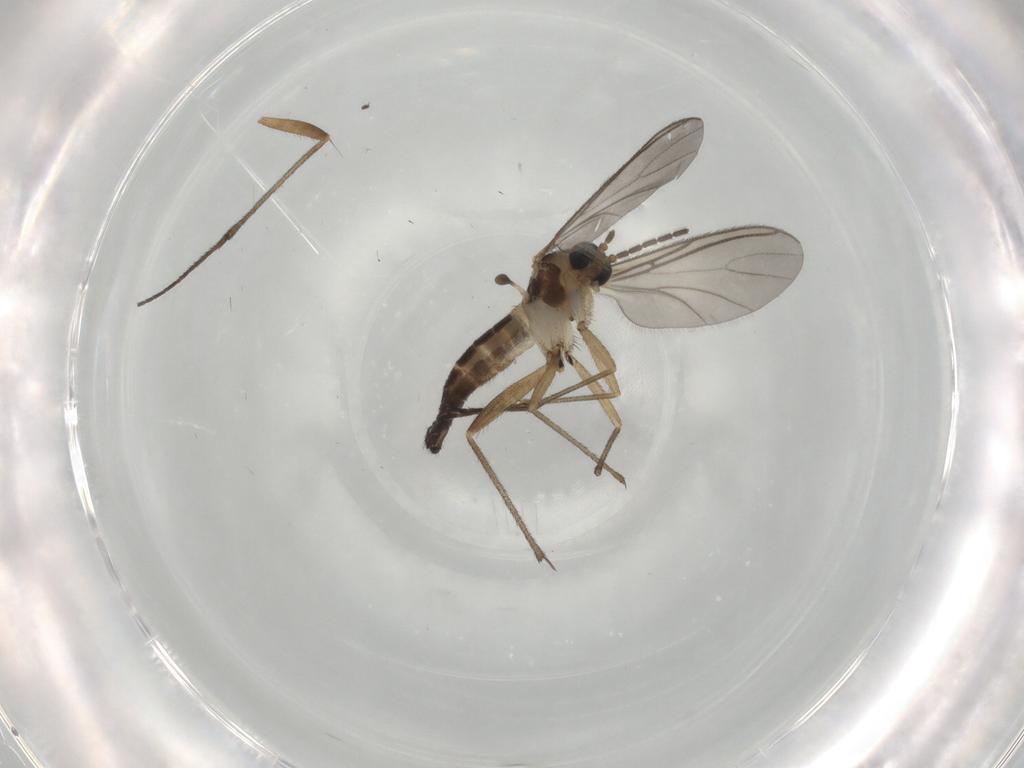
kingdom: Animalia
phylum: Arthropoda
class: Insecta
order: Diptera
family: Sciaridae
